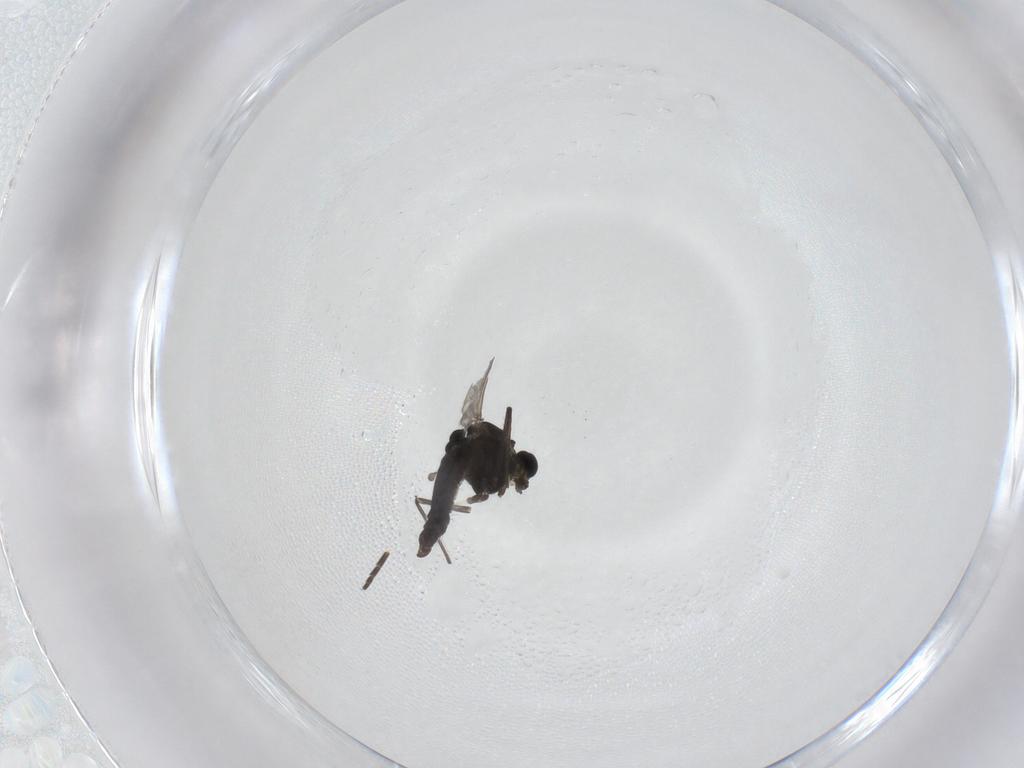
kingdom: Animalia
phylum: Arthropoda
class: Insecta
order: Diptera
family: Chironomidae
